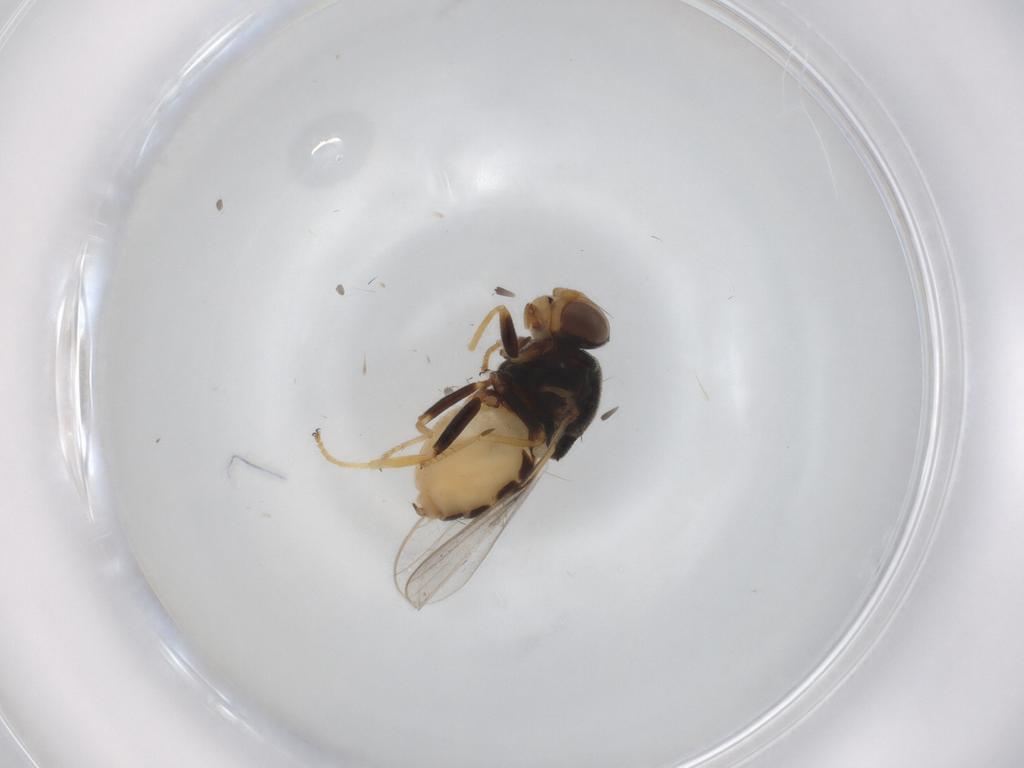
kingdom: Animalia
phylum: Arthropoda
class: Insecta
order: Diptera
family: Chloropidae
